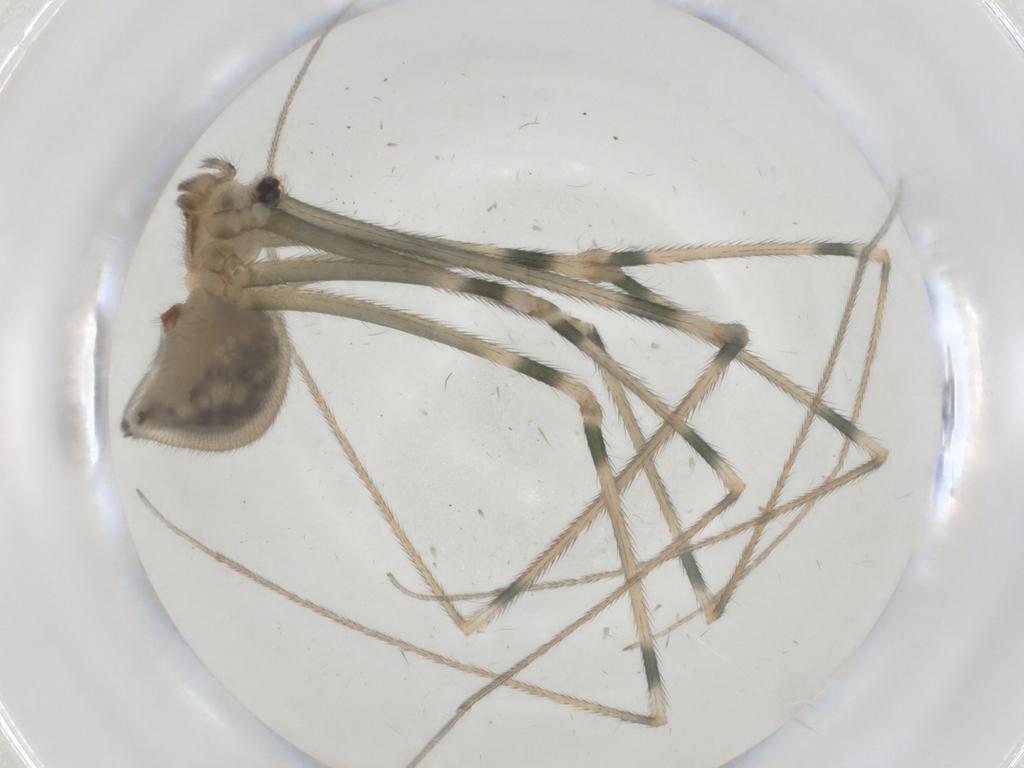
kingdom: Animalia
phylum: Arthropoda
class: Arachnida
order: Araneae
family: Pholcidae
